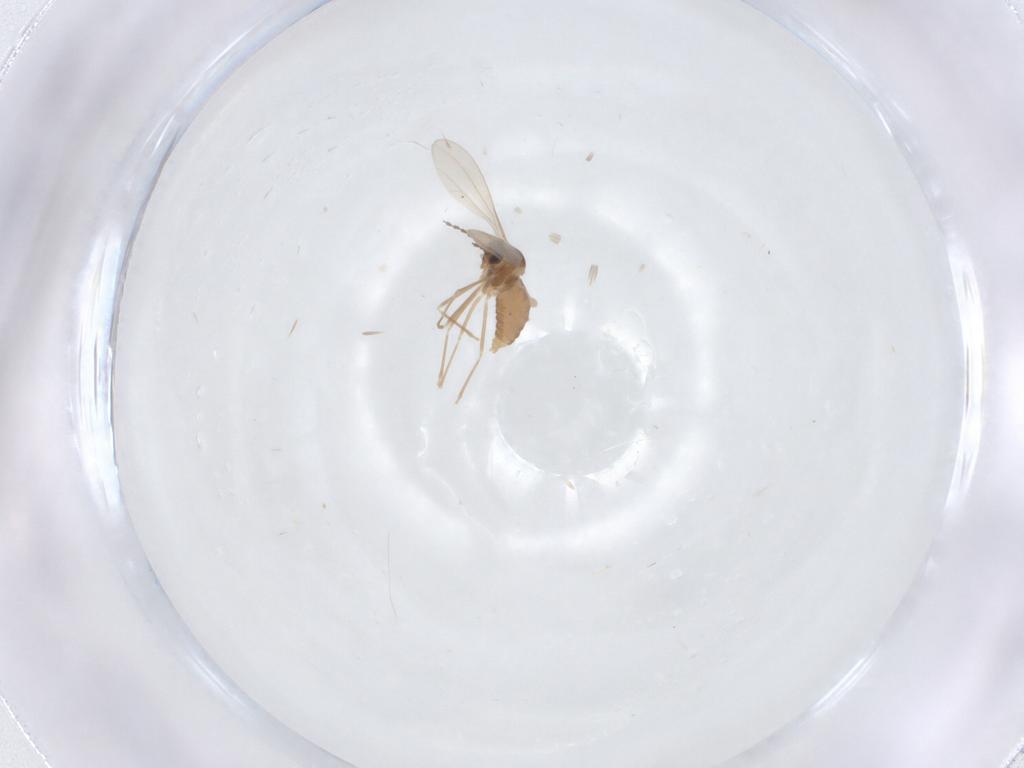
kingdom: Animalia
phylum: Arthropoda
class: Insecta
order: Diptera
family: Cecidomyiidae
